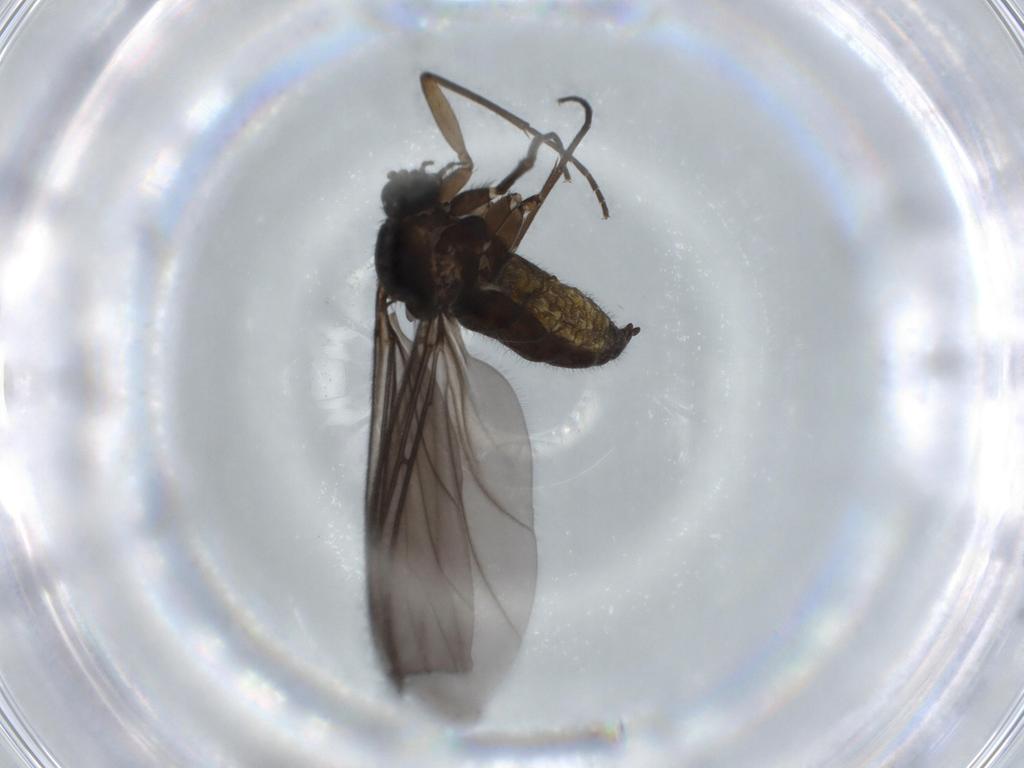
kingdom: Animalia
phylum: Arthropoda
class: Insecta
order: Diptera
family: Sciaridae
